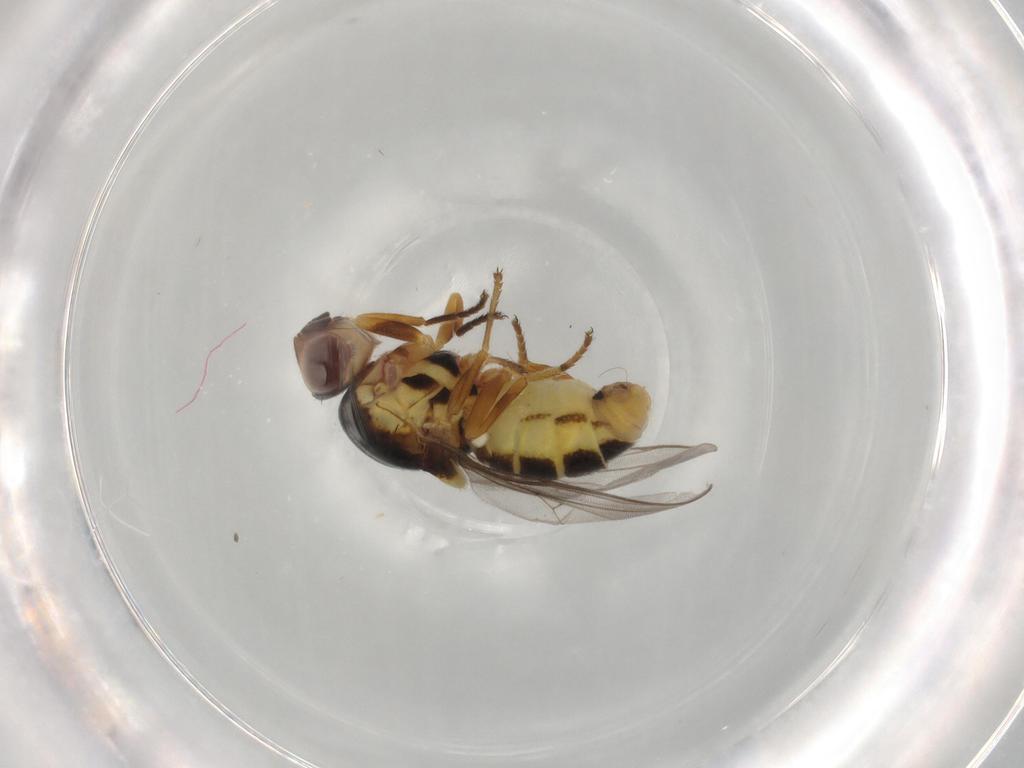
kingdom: Animalia
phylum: Arthropoda
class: Insecta
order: Diptera
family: Chloropidae
